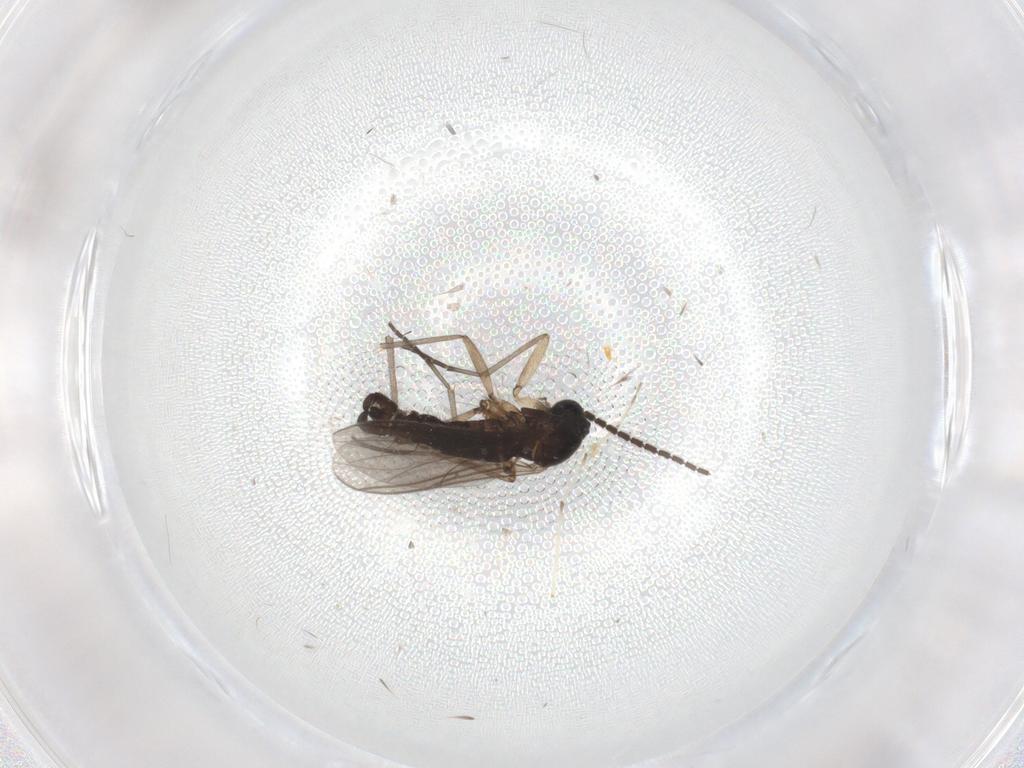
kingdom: Animalia
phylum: Arthropoda
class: Insecta
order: Diptera
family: Sciaridae
